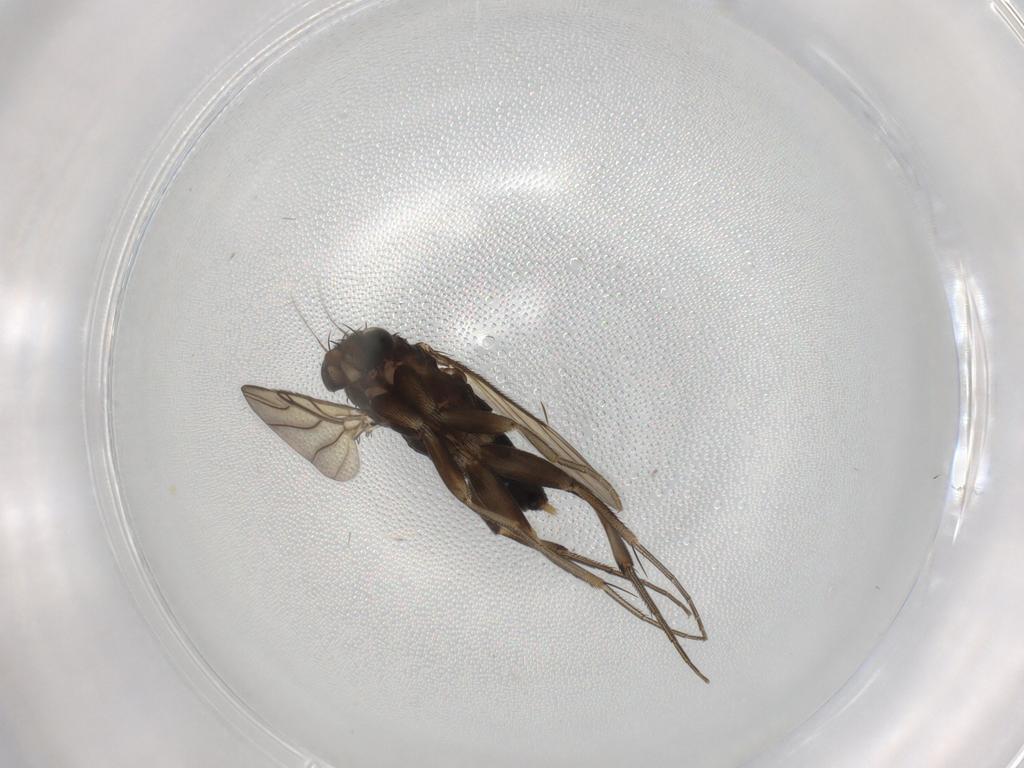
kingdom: Animalia
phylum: Arthropoda
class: Insecta
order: Diptera
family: Phoridae
